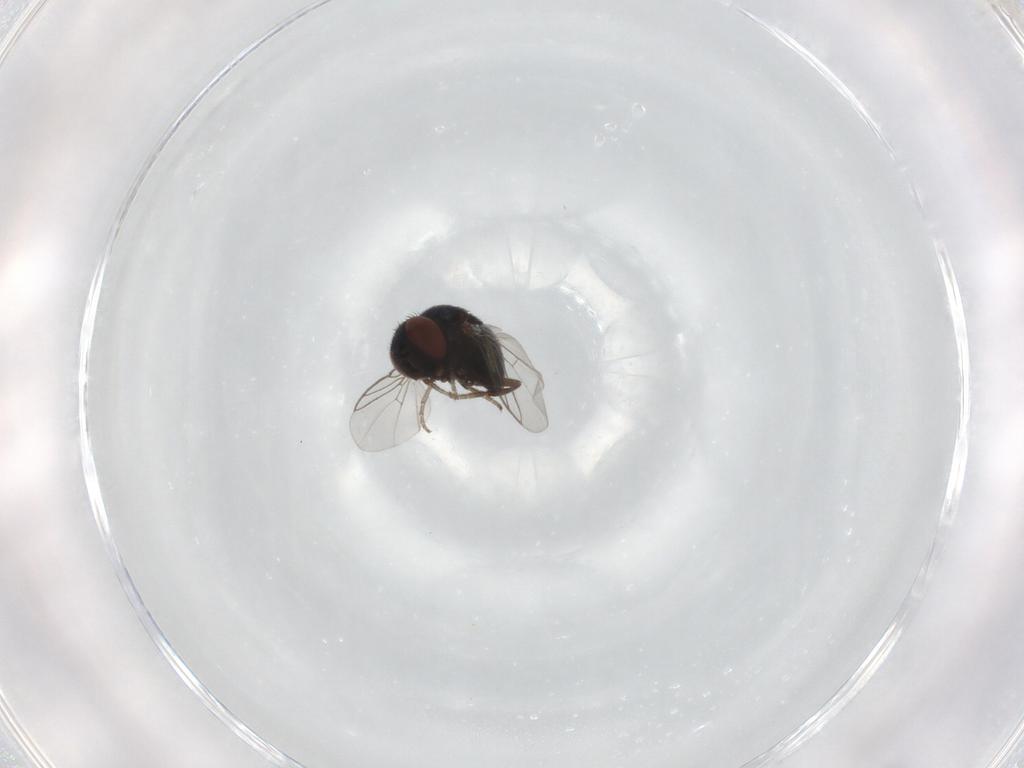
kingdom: Animalia
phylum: Arthropoda
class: Insecta
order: Diptera
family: Cryptochetidae
